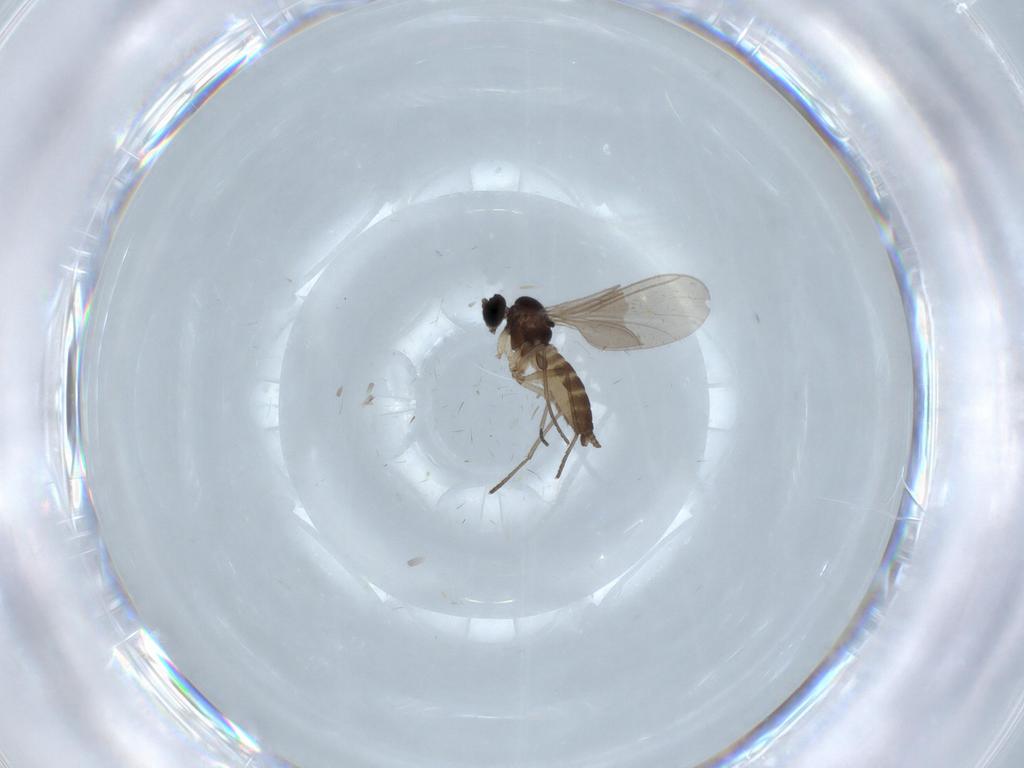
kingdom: Animalia
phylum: Arthropoda
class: Insecta
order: Diptera
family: Sciaridae
